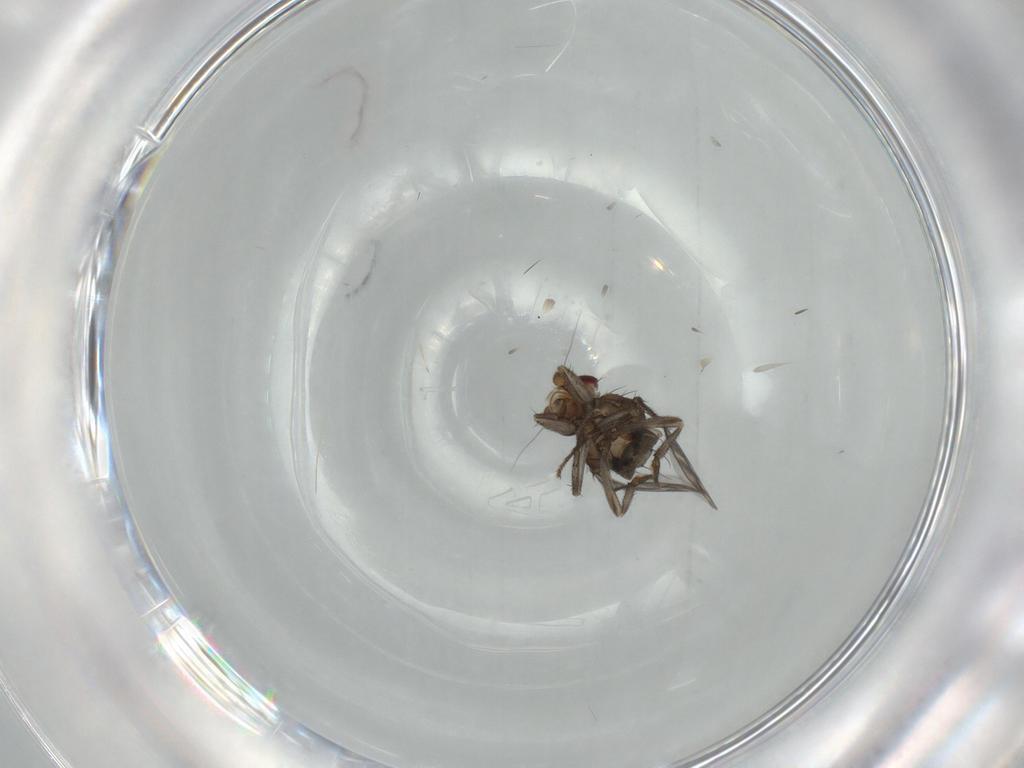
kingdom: Animalia
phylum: Arthropoda
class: Insecta
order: Diptera
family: Sphaeroceridae
